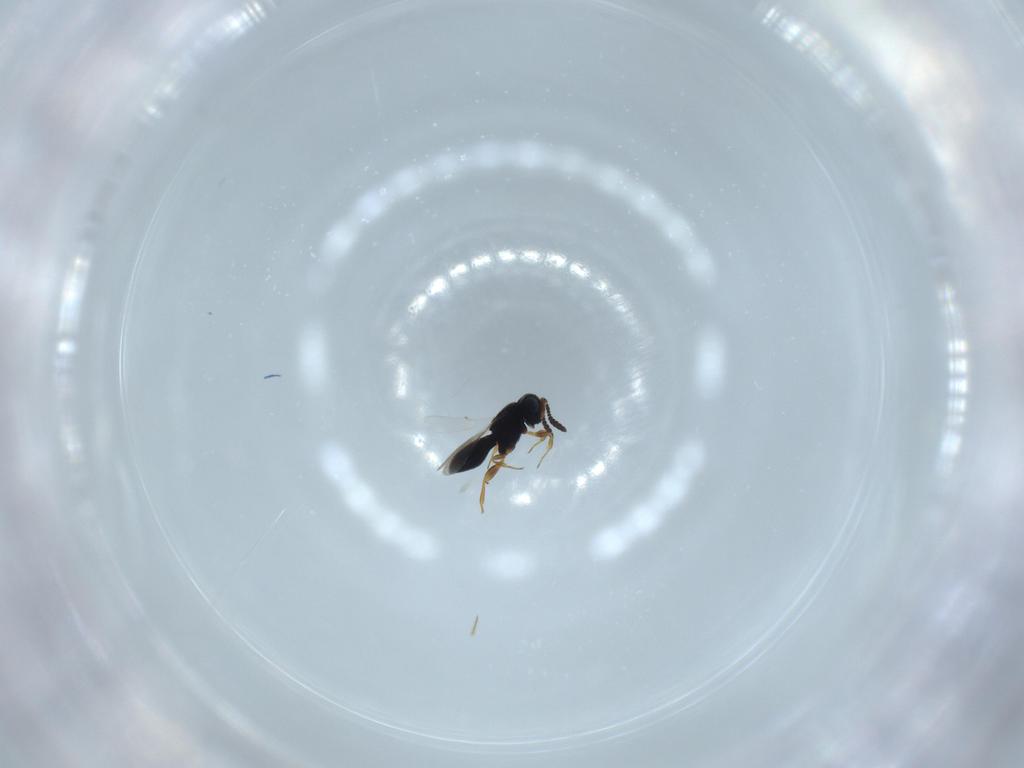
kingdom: Animalia
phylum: Arthropoda
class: Insecta
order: Hymenoptera
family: Scelionidae
